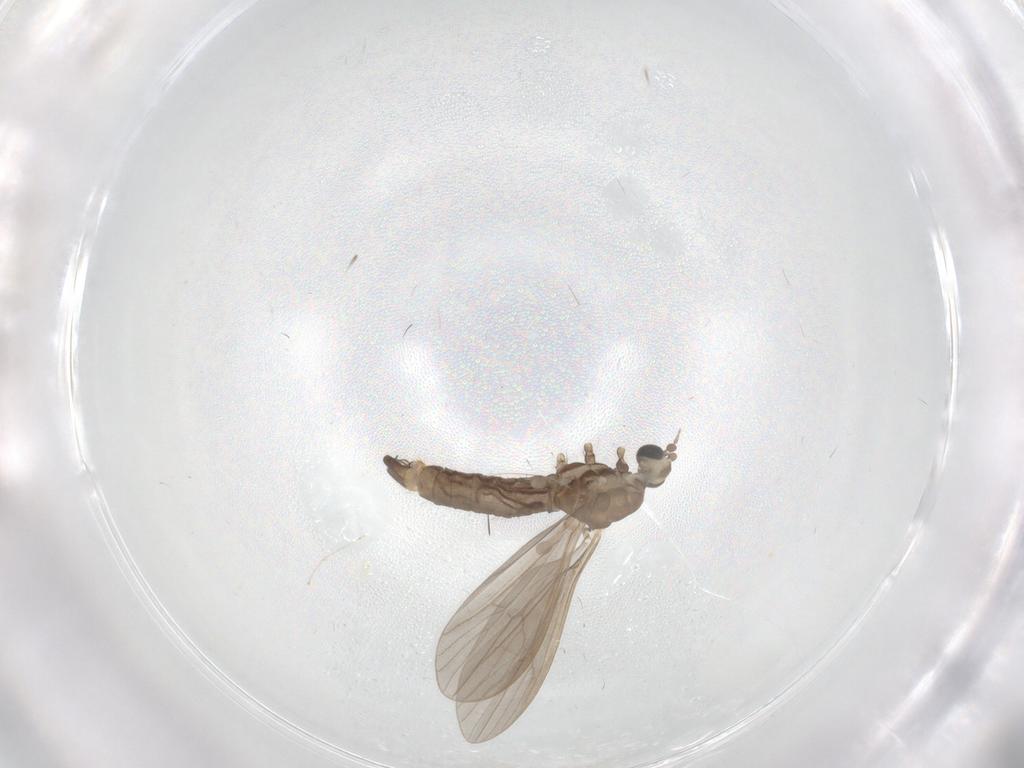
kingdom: Animalia
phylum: Arthropoda
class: Insecta
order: Diptera
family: Limoniidae
